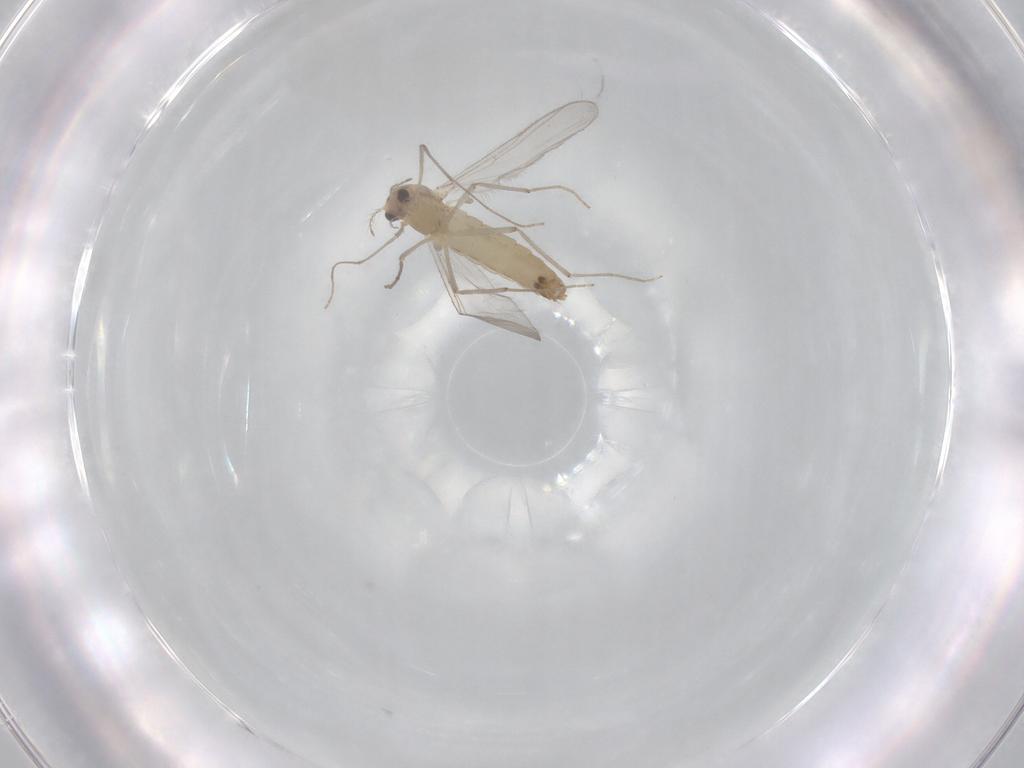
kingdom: Animalia
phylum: Arthropoda
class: Insecta
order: Diptera
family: Chironomidae
